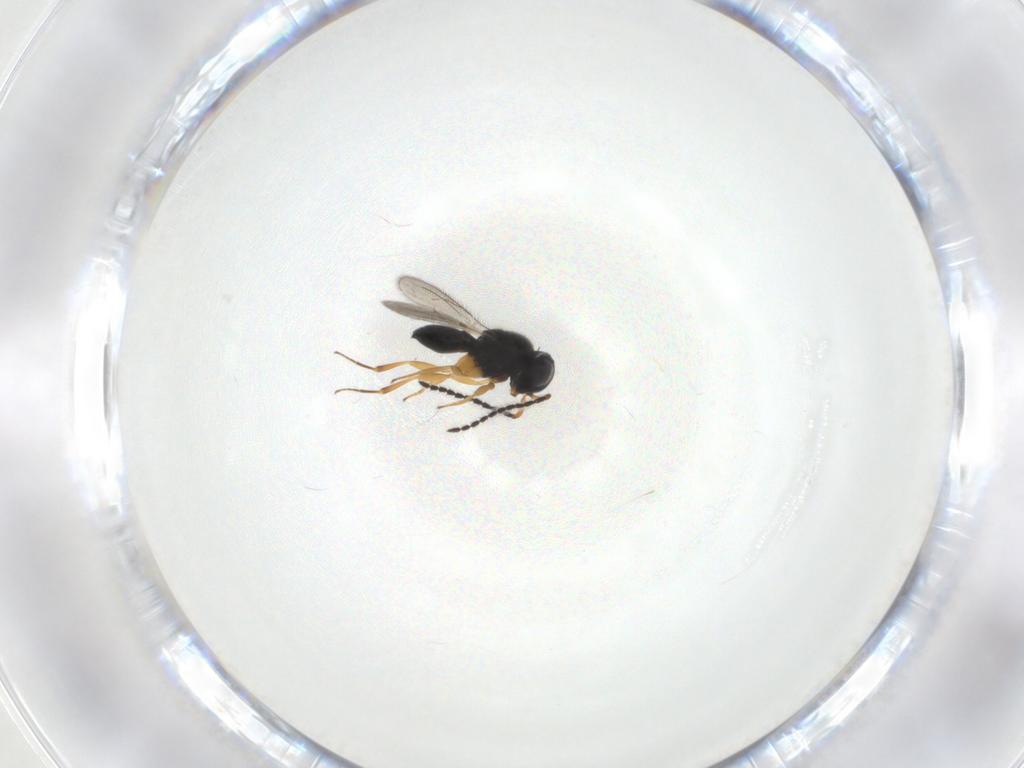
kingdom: Animalia
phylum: Arthropoda
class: Insecta
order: Hymenoptera
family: Scelionidae
